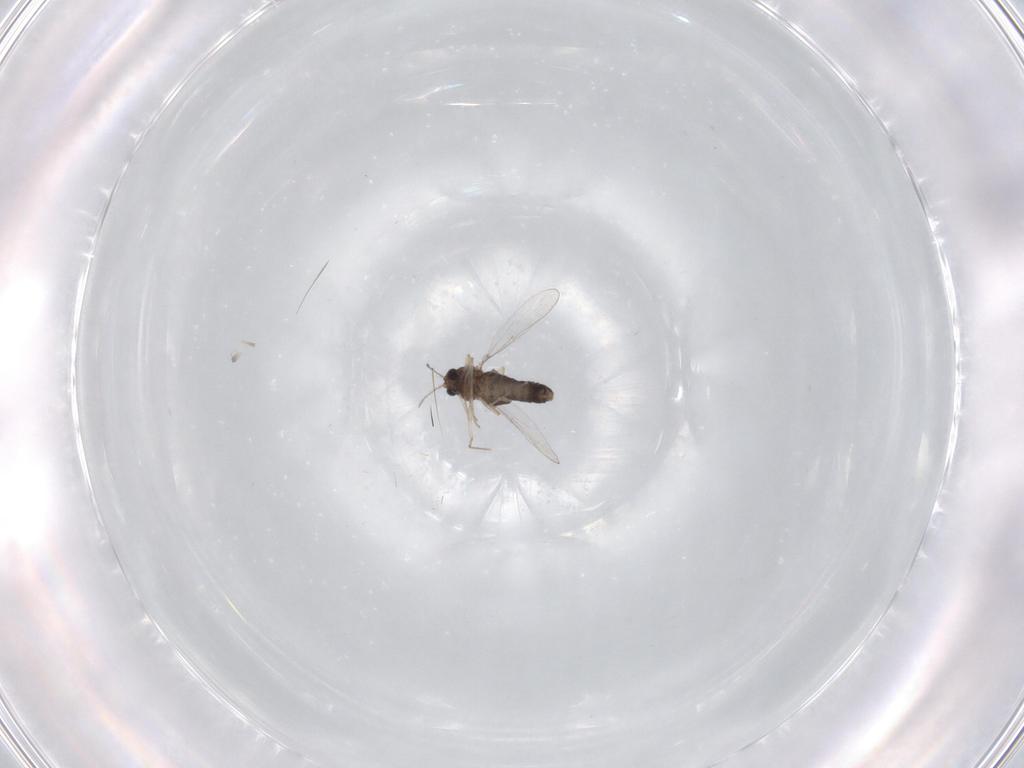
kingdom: Animalia
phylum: Arthropoda
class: Insecta
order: Diptera
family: Chironomidae
